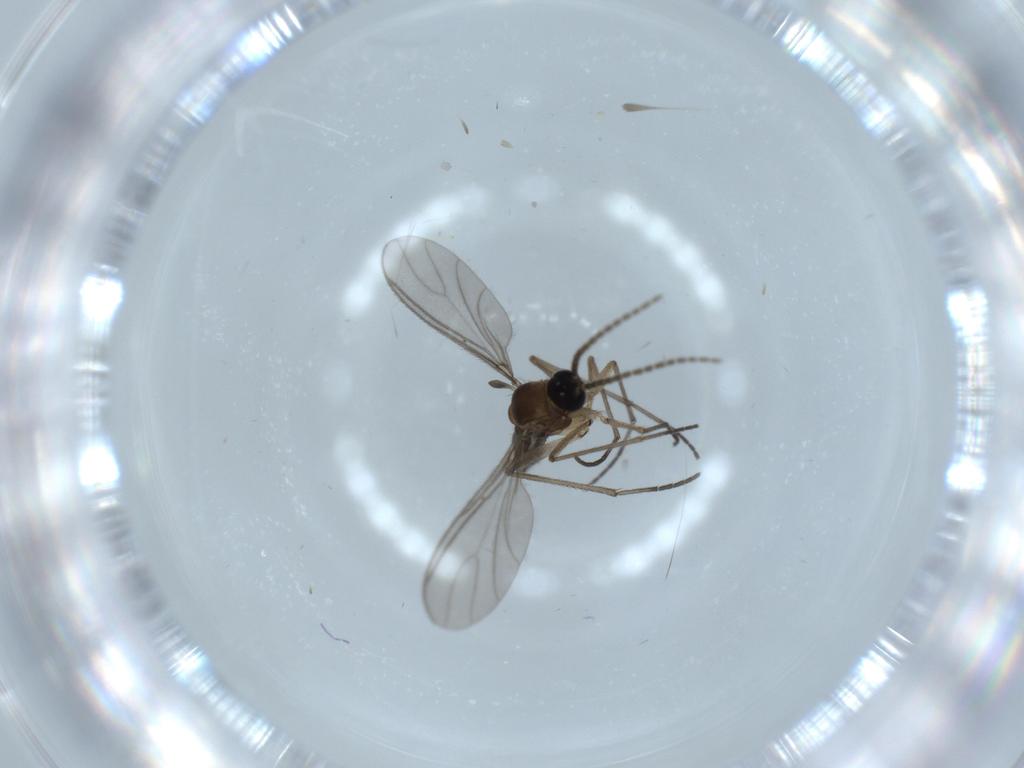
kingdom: Animalia
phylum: Arthropoda
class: Insecta
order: Diptera
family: Sciaridae
